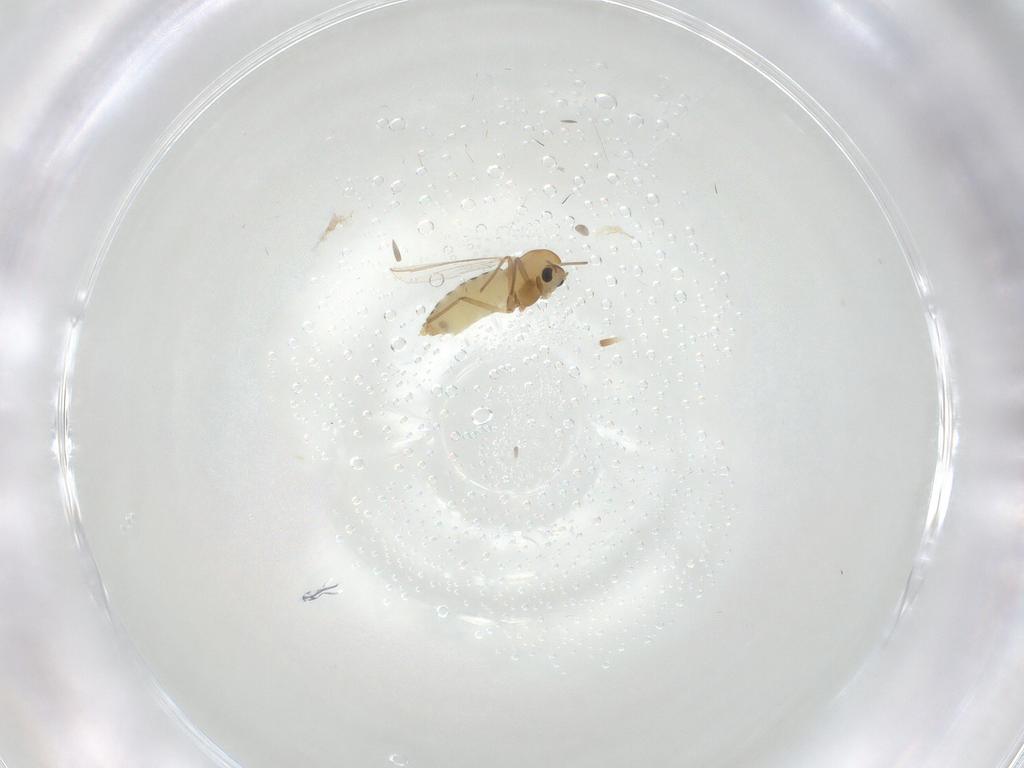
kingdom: Animalia
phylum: Arthropoda
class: Insecta
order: Diptera
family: Chironomidae
